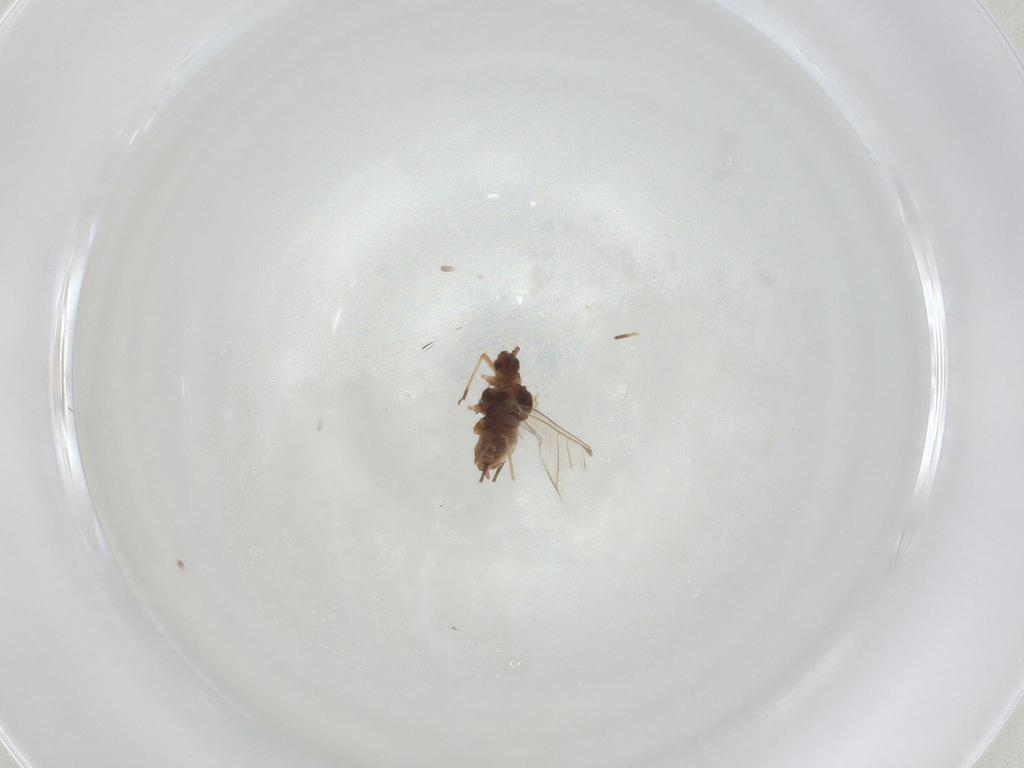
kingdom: Animalia
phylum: Arthropoda
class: Insecta
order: Hemiptera
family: Aphididae
